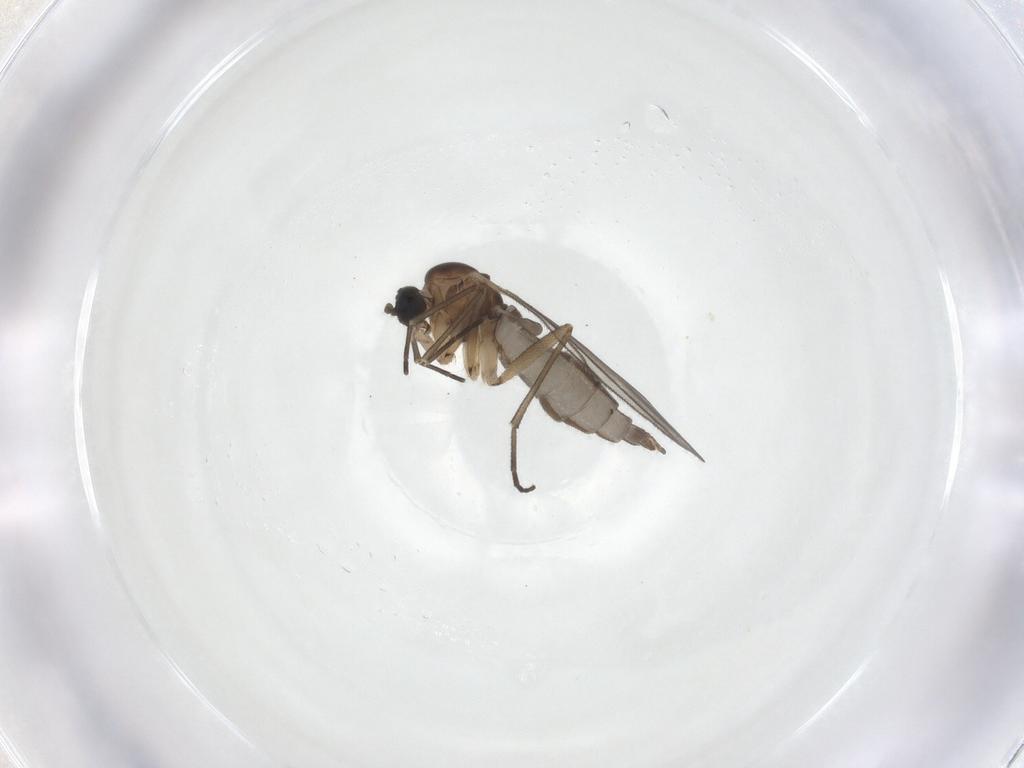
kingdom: Animalia
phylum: Arthropoda
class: Insecta
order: Diptera
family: Sciaridae
